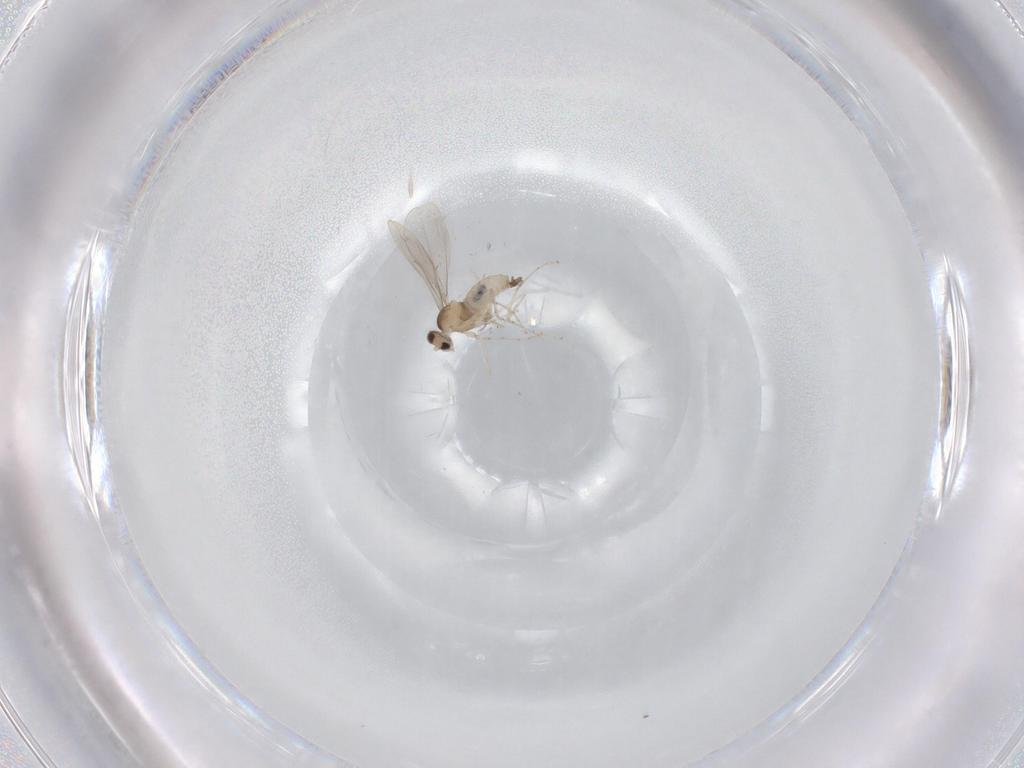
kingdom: Animalia
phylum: Arthropoda
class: Insecta
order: Diptera
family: Cecidomyiidae
